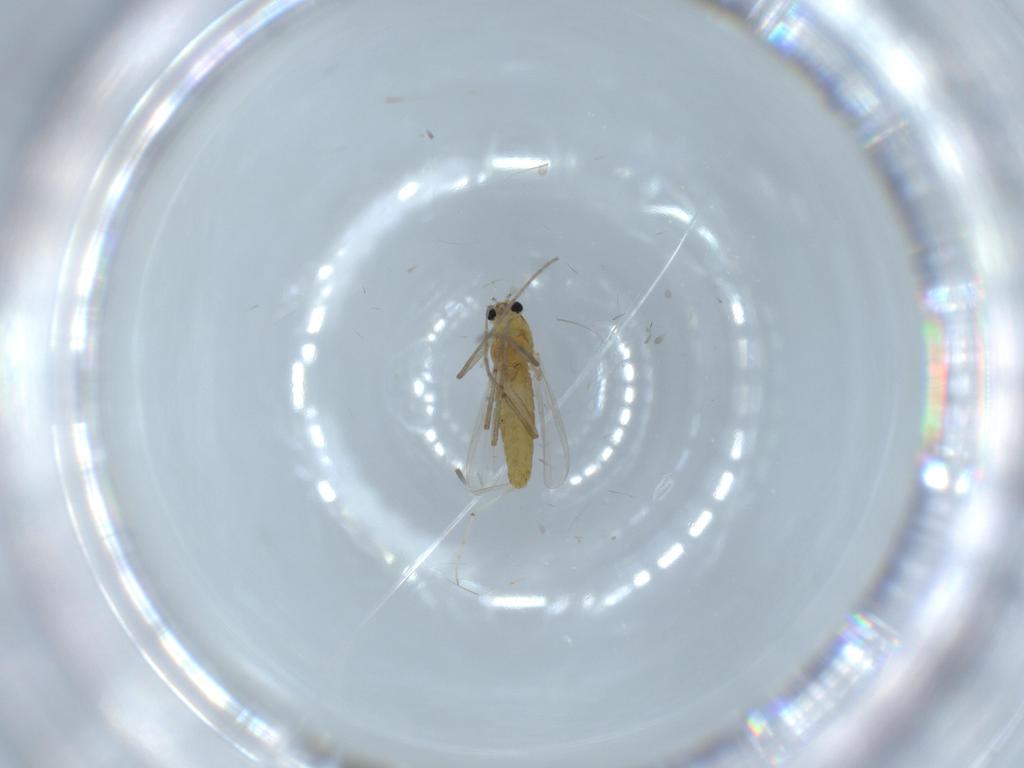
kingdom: Animalia
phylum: Arthropoda
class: Insecta
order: Diptera
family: Chironomidae
